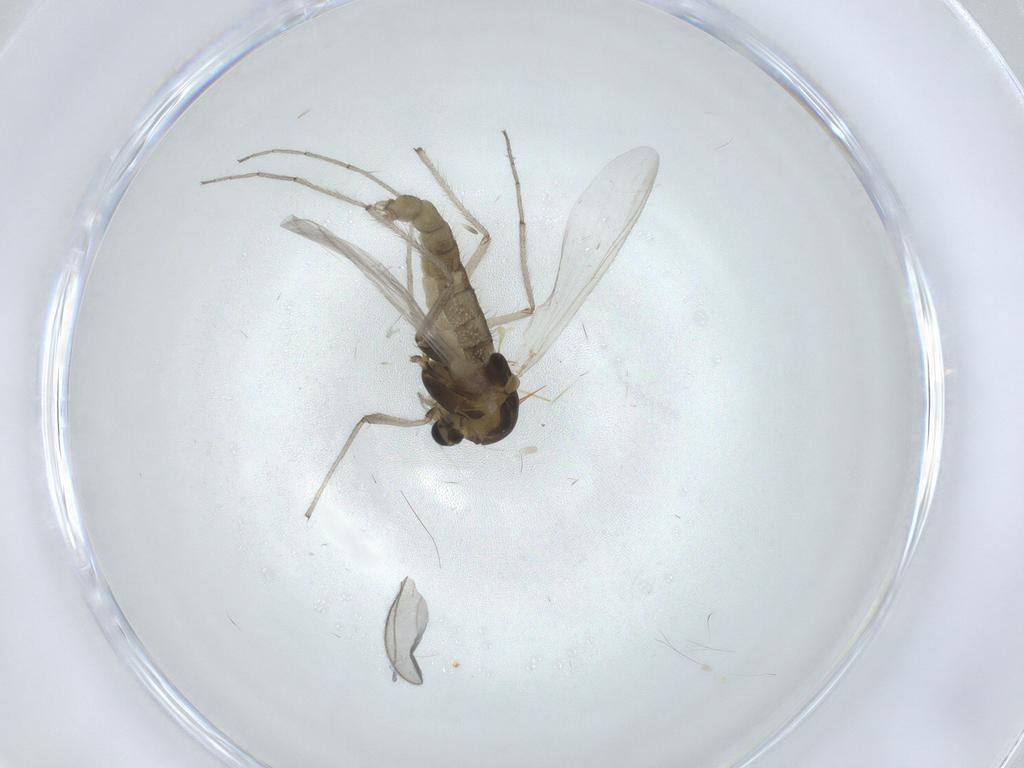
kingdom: Animalia
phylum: Arthropoda
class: Insecta
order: Diptera
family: Chironomidae
